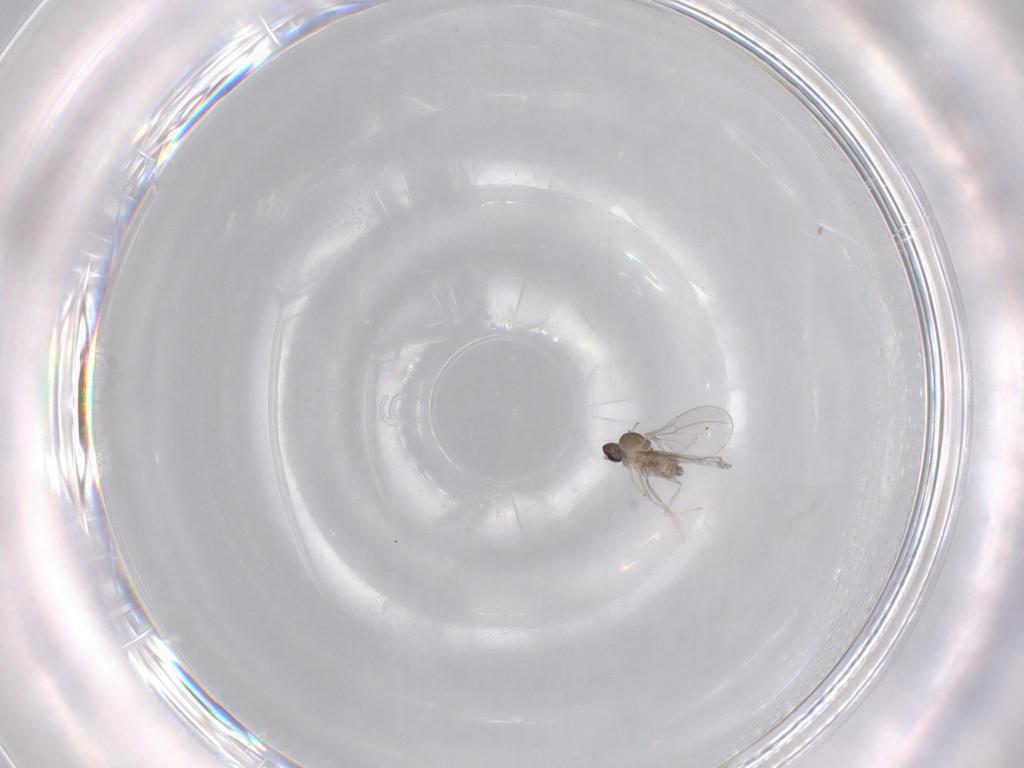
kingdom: Animalia
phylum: Arthropoda
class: Insecta
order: Diptera
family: Cecidomyiidae
